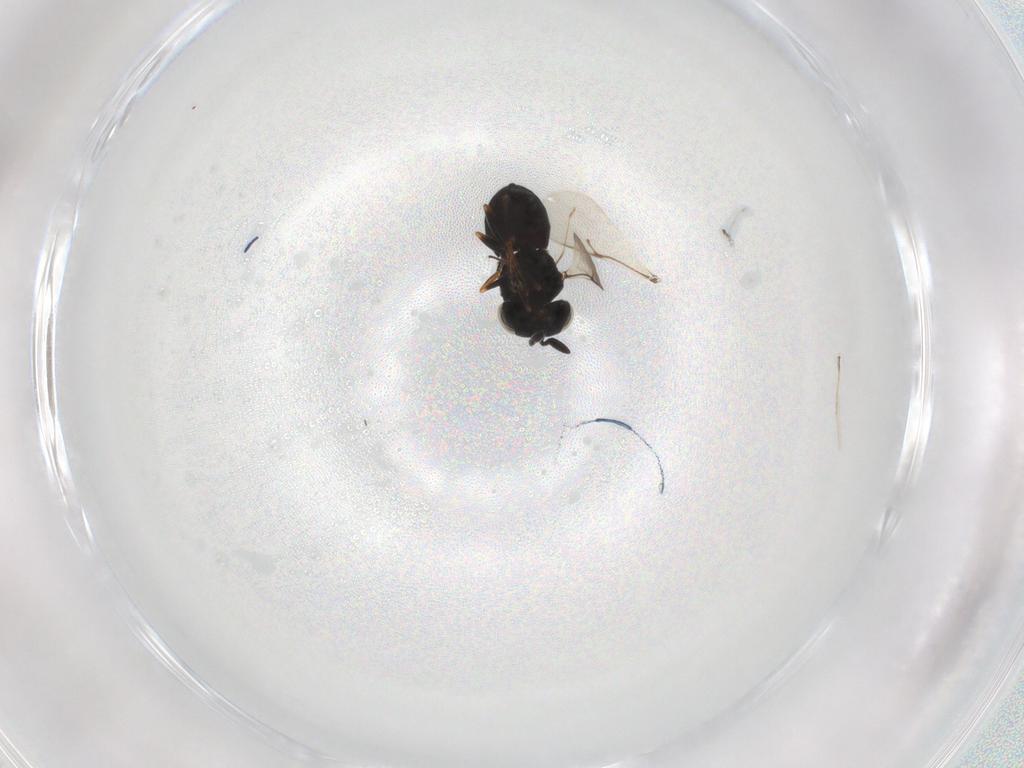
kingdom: Animalia
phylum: Arthropoda
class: Insecta
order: Hymenoptera
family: Scelionidae
